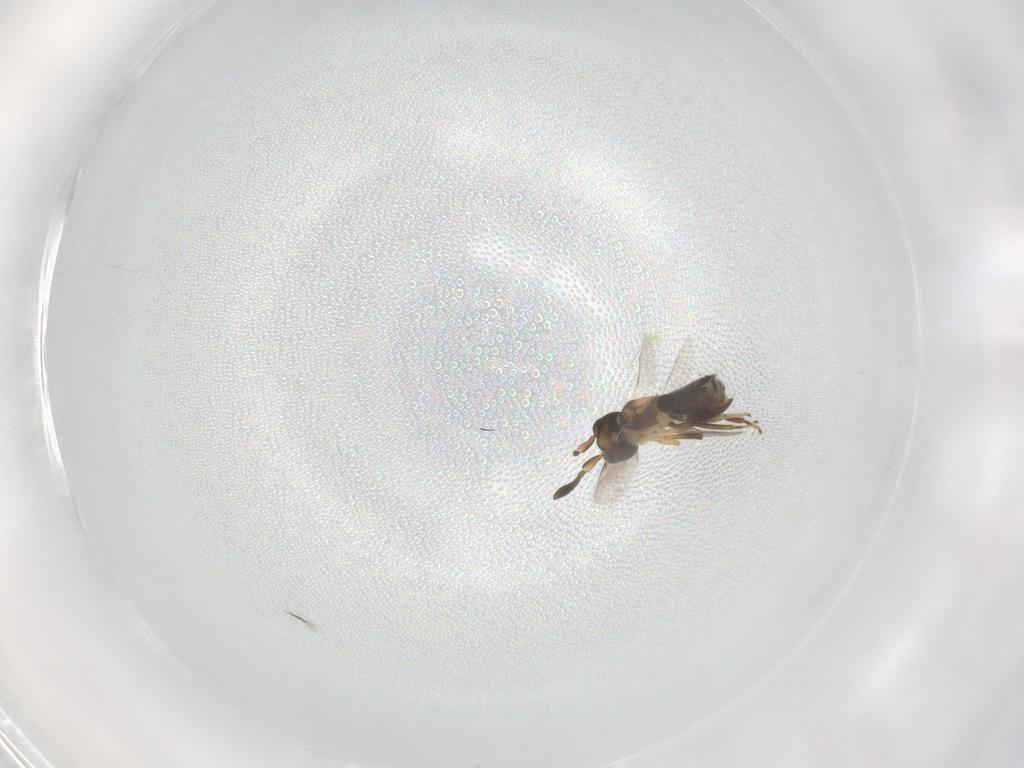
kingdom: Animalia
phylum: Arthropoda
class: Insecta
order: Hymenoptera
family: Encyrtidae
